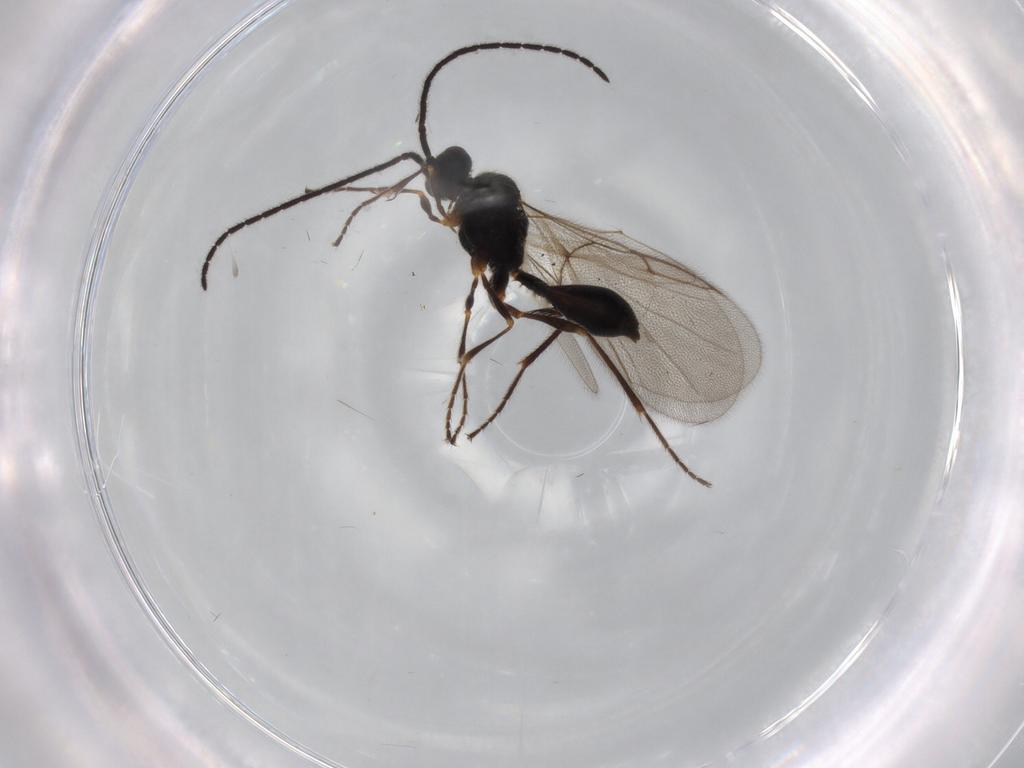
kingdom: Animalia
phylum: Arthropoda
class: Insecta
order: Hymenoptera
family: Diapriidae
